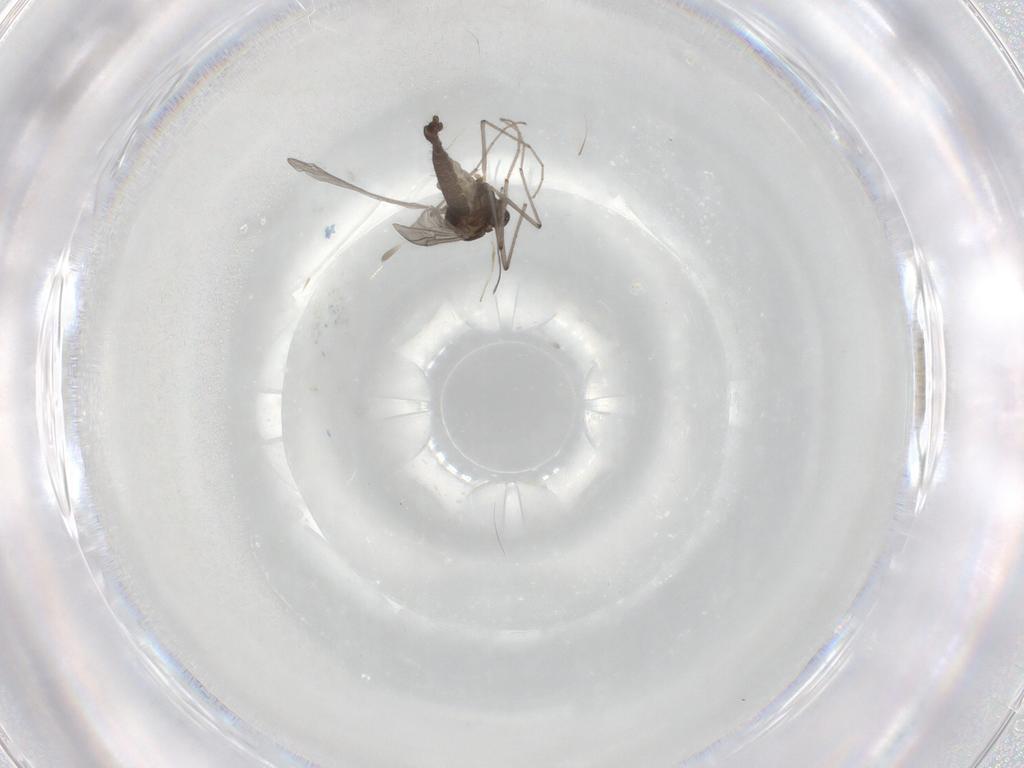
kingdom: Animalia
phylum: Arthropoda
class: Insecta
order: Diptera
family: Chironomidae
